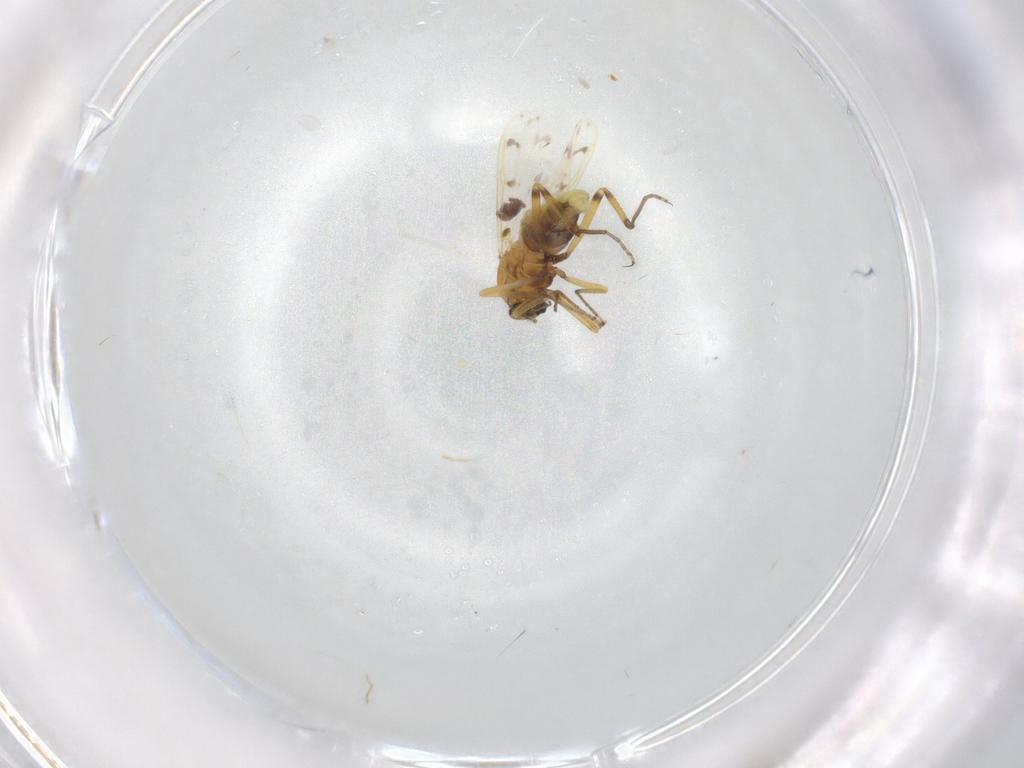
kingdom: Animalia
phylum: Arthropoda
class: Insecta
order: Diptera
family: Ceratopogonidae
